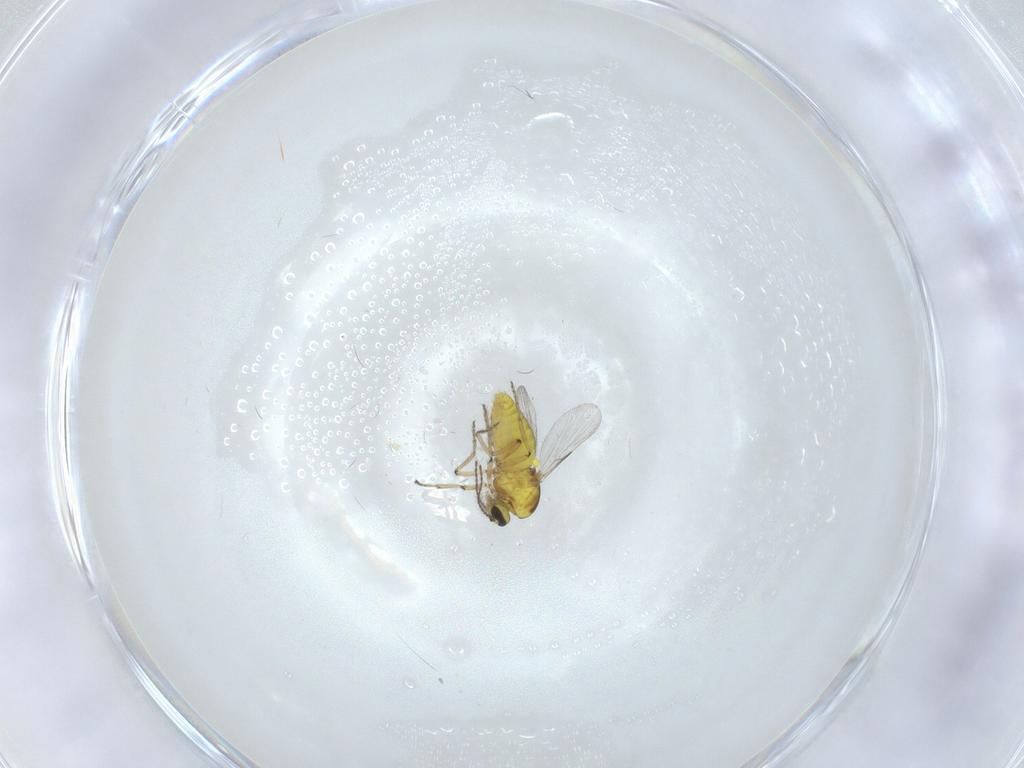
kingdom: Animalia
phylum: Arthropoda
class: Insecta
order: Diptera
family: Ceratopogonidae
